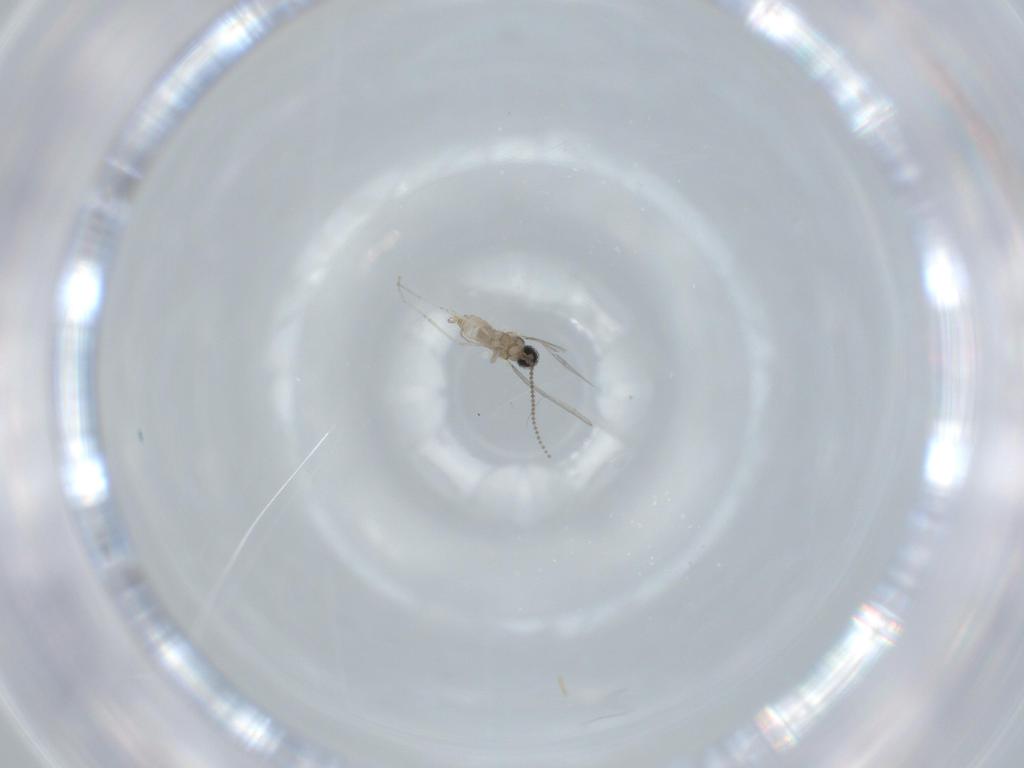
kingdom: Animalia
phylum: Arthropoda
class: Insecta
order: Diptera
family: Cecidomyiidae
